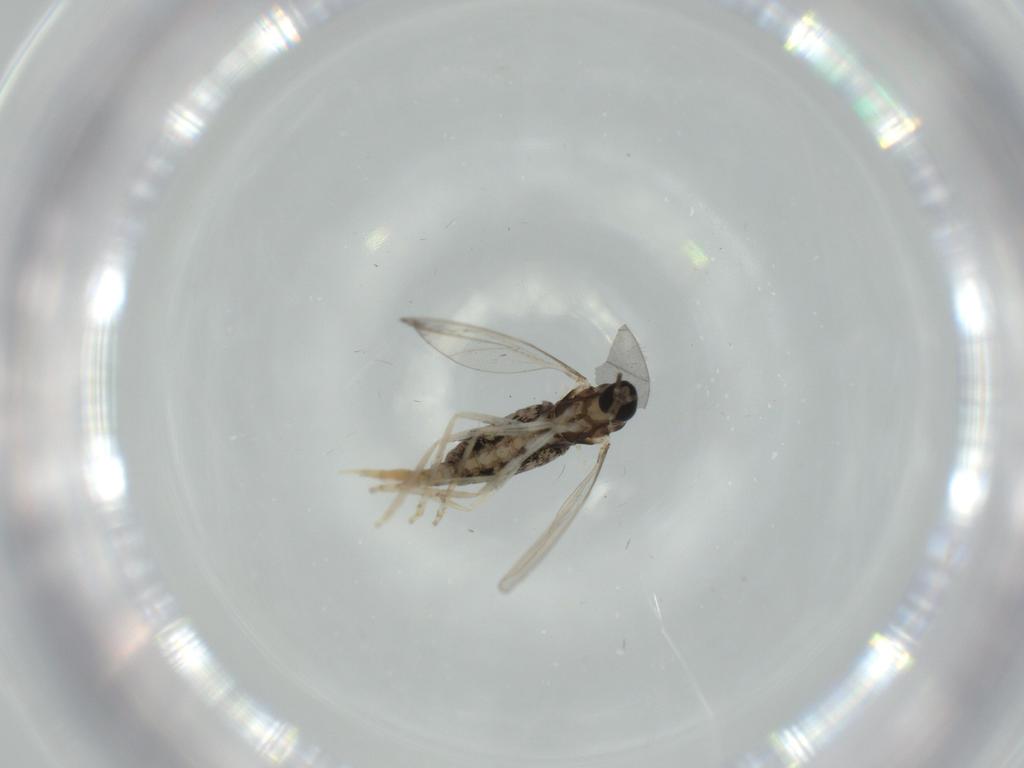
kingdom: Animalia
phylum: Arthropoda
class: Insecta
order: Diptera
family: Cecidomyiidae
